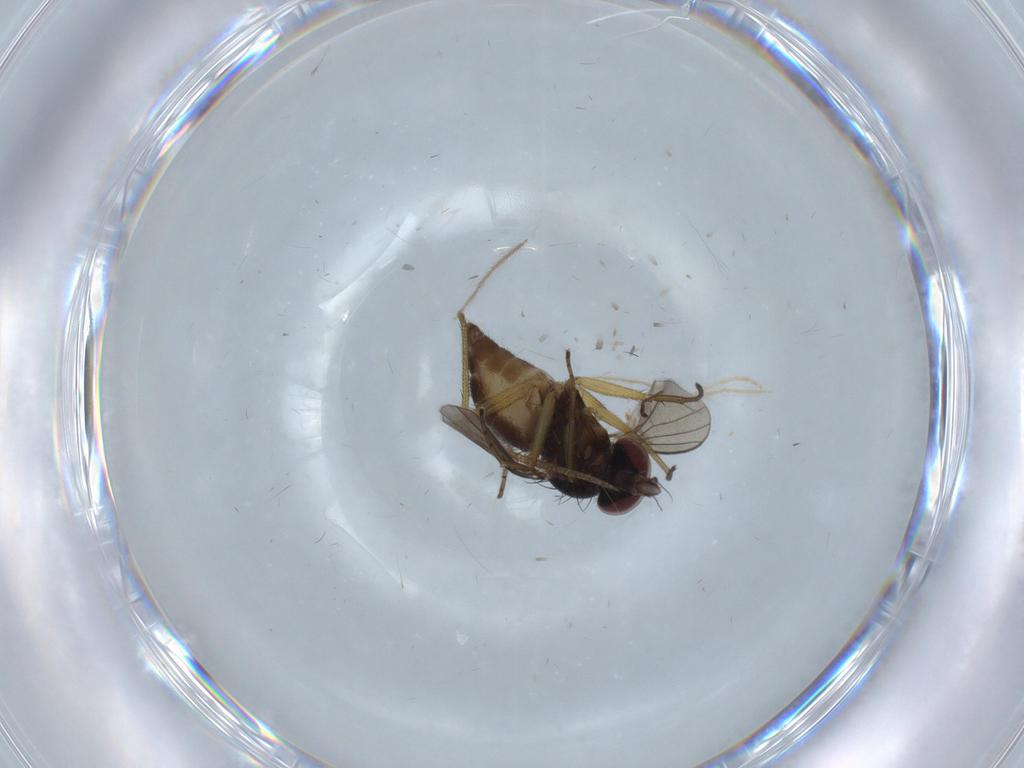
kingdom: Animalia
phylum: Arthropoda
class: Insecta
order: Diptera
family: Dolichopodidae
